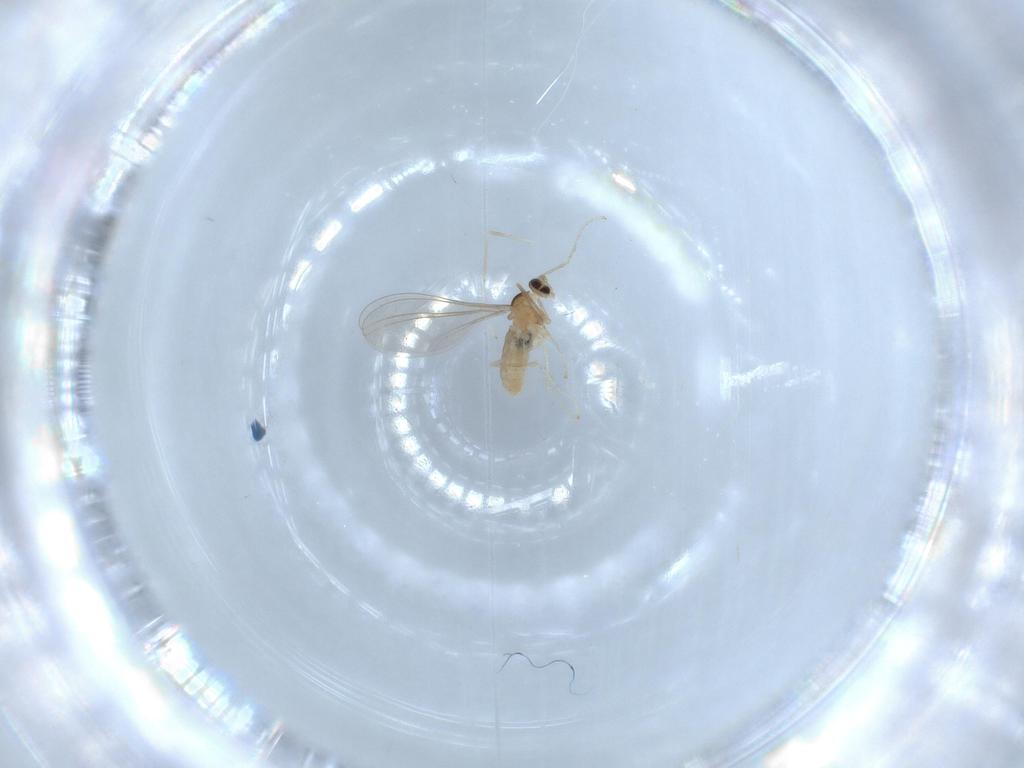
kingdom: Animalia
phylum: Arthropoda
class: Insecta
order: Diptera
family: Cecidomyiidae
